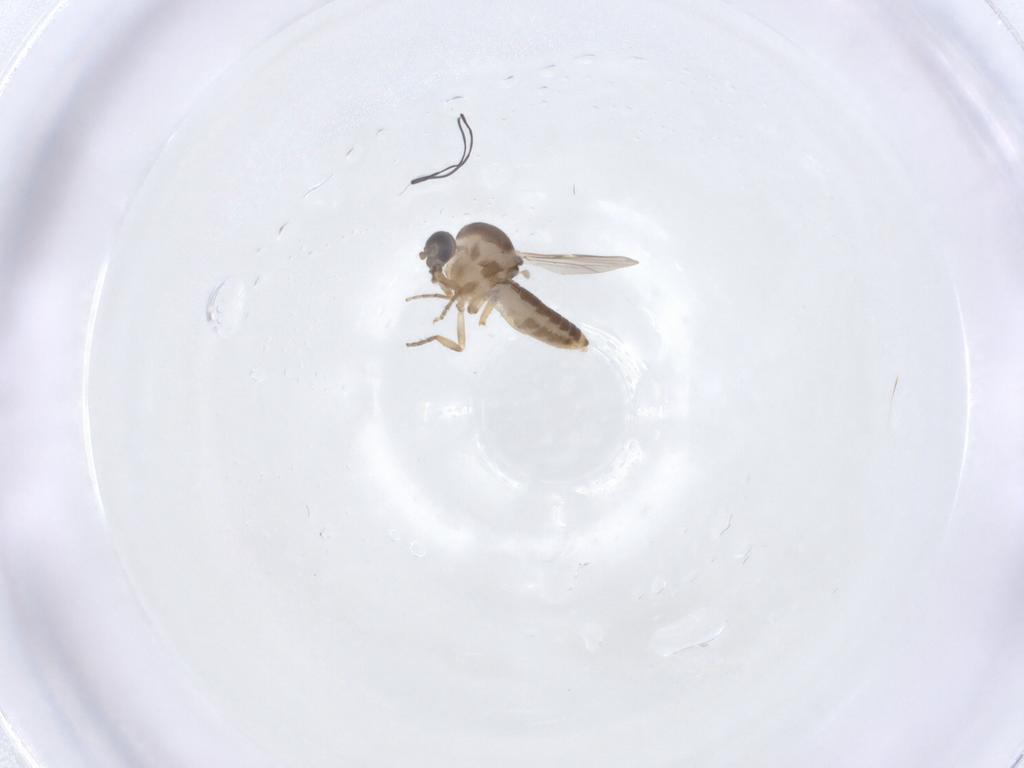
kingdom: Animalia
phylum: Arthropoda
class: Insecta
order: Diptera
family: Ceratopogonidae
